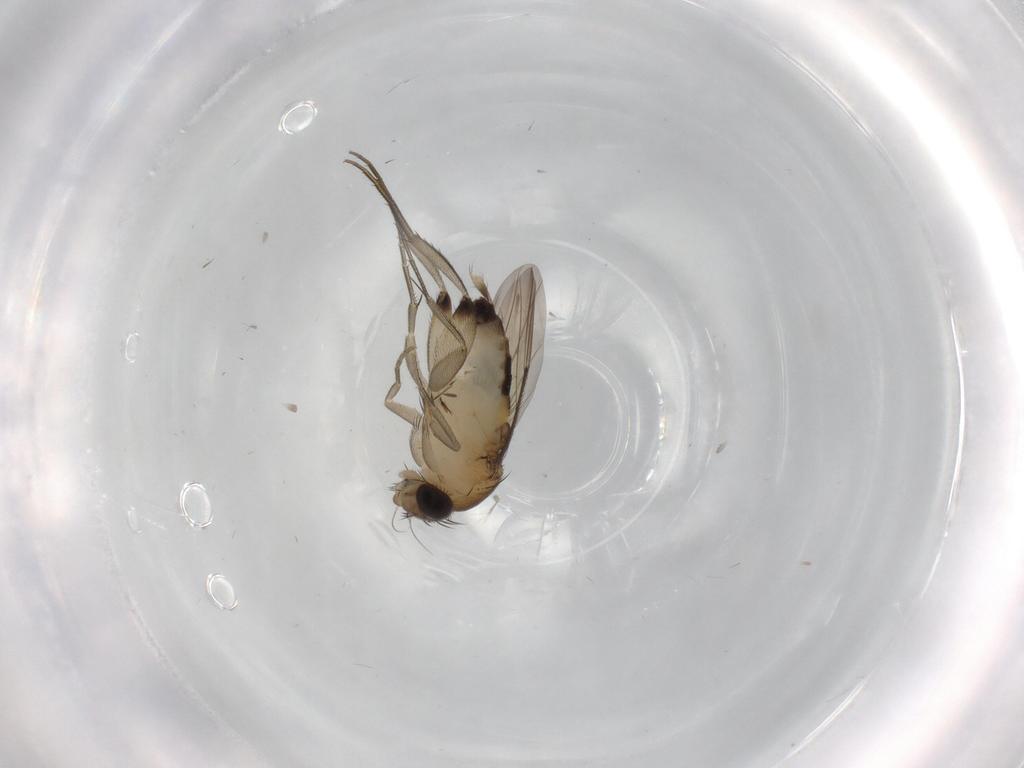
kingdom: Animalia
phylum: Arthropoda
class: Insecta
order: Diptera
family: Phoridae
